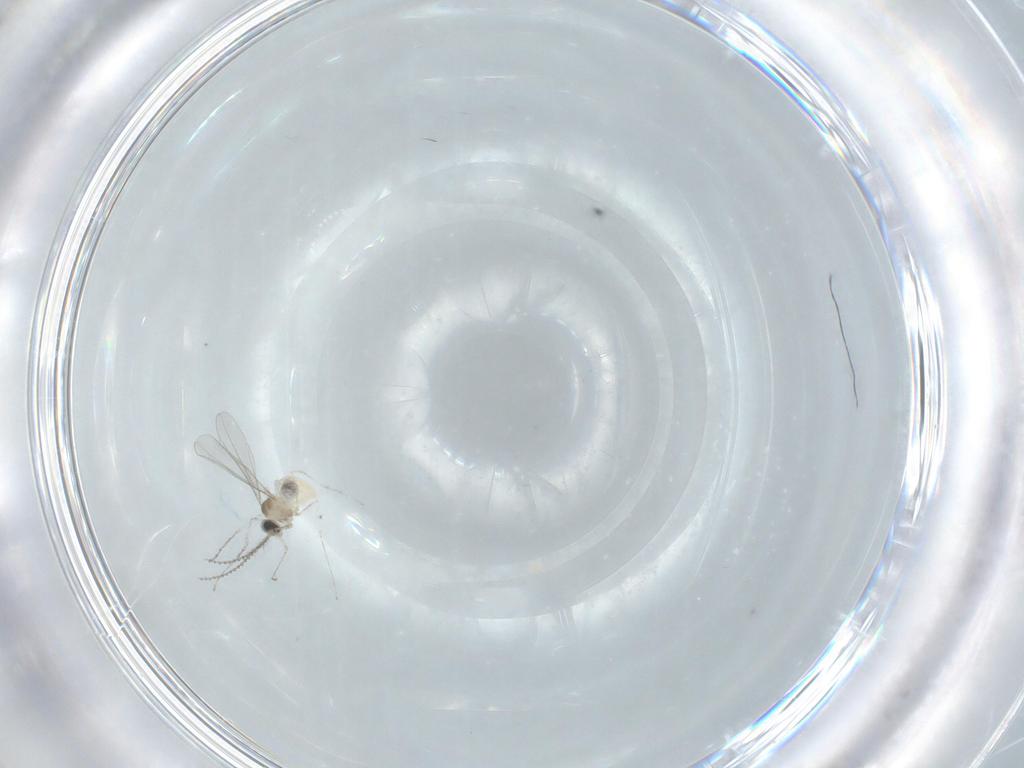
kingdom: Animalia
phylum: Arthropoda
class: Insecta
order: Diptera
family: Cecidomyiidae
